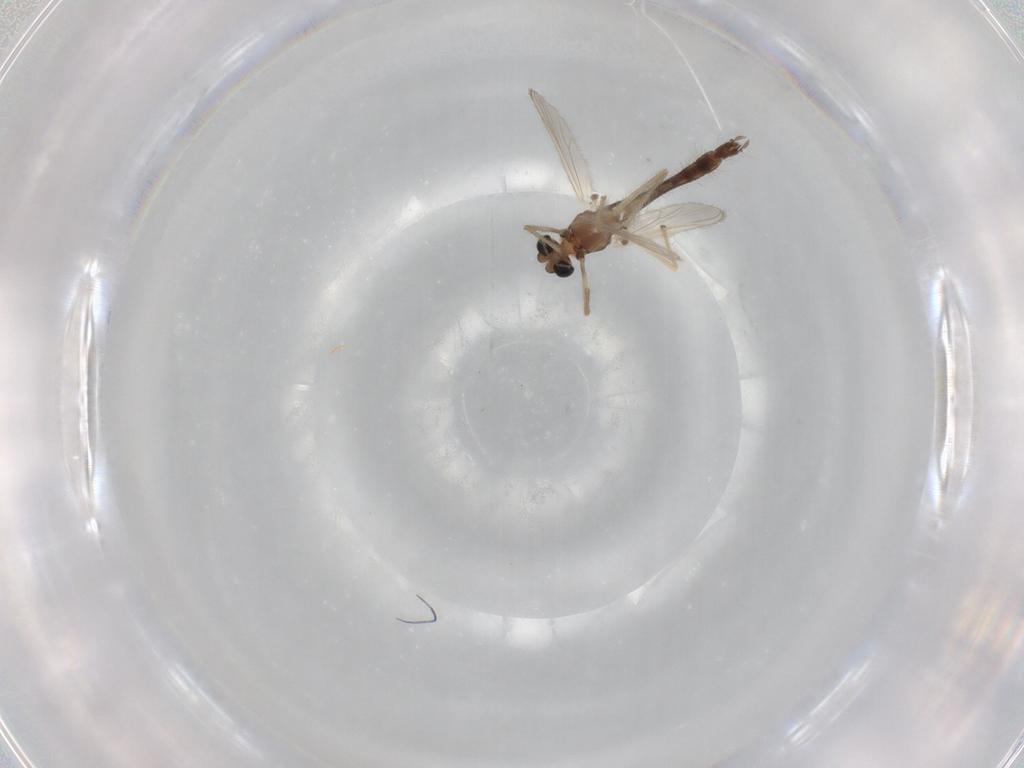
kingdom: Animalia
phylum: Arthropoda
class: Insecta
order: Diptera
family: Chironomidae
